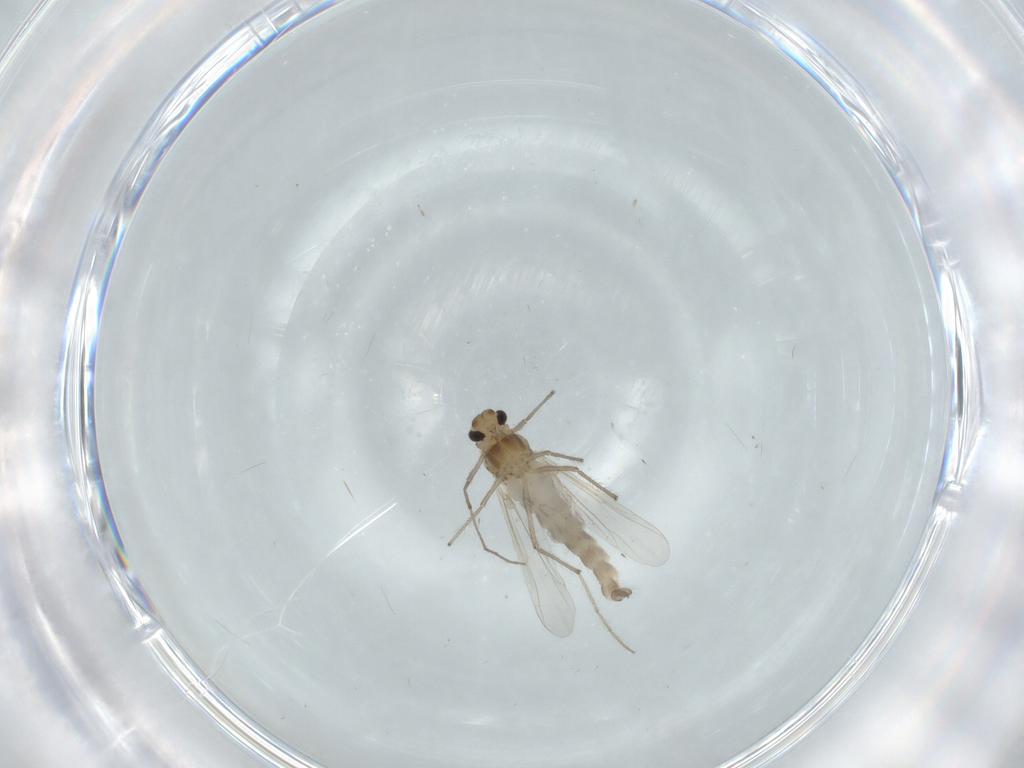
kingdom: Animalia
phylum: Arthropoda
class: Insecta
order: Diptera
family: Chironomidae
